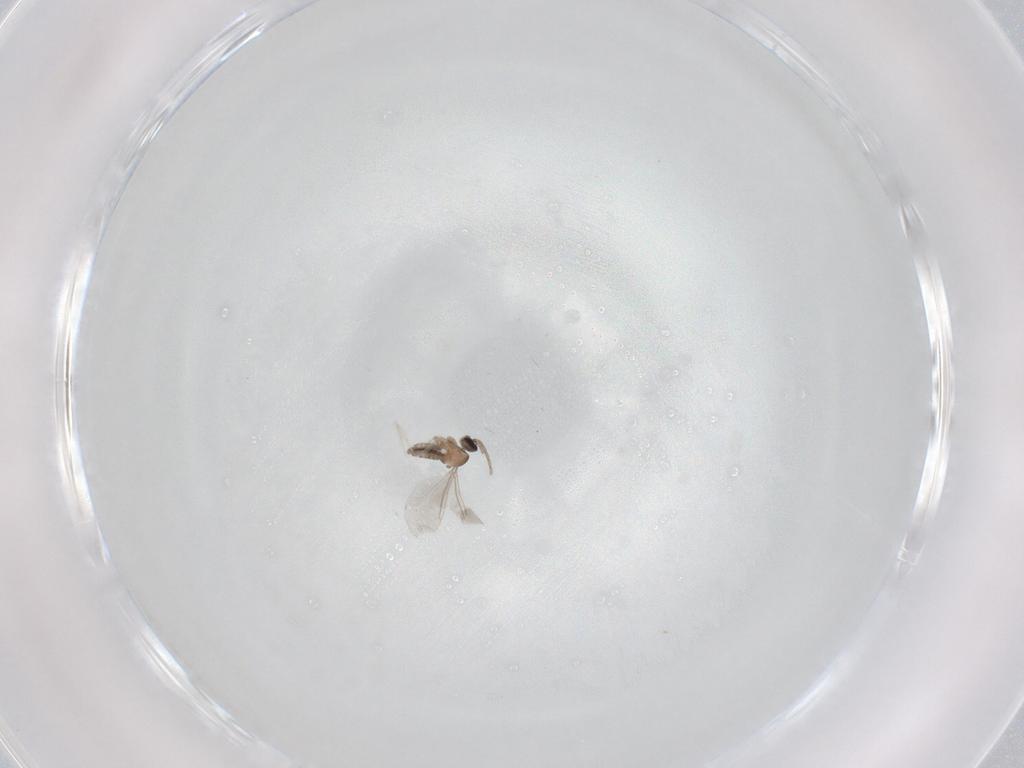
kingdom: Animalia
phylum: Arthropoda
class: Insecta
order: Diptera
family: Cecidomyiidae
